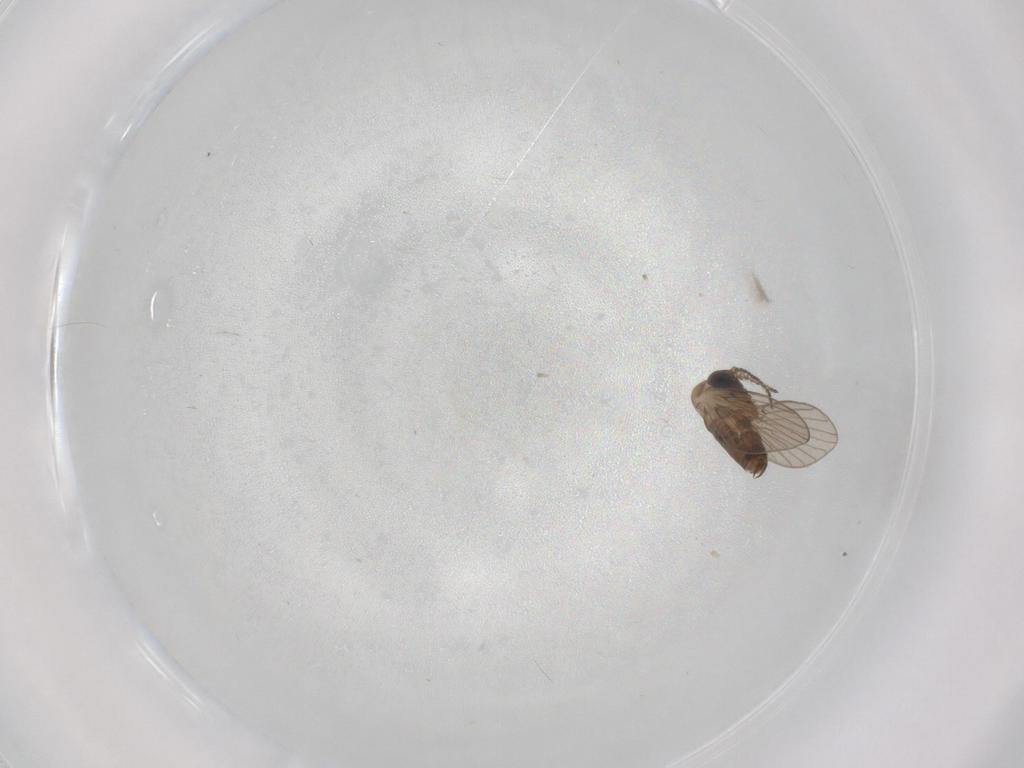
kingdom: Animalia
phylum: Arthropoda
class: Insecta
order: Diptera
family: Psychodidae
